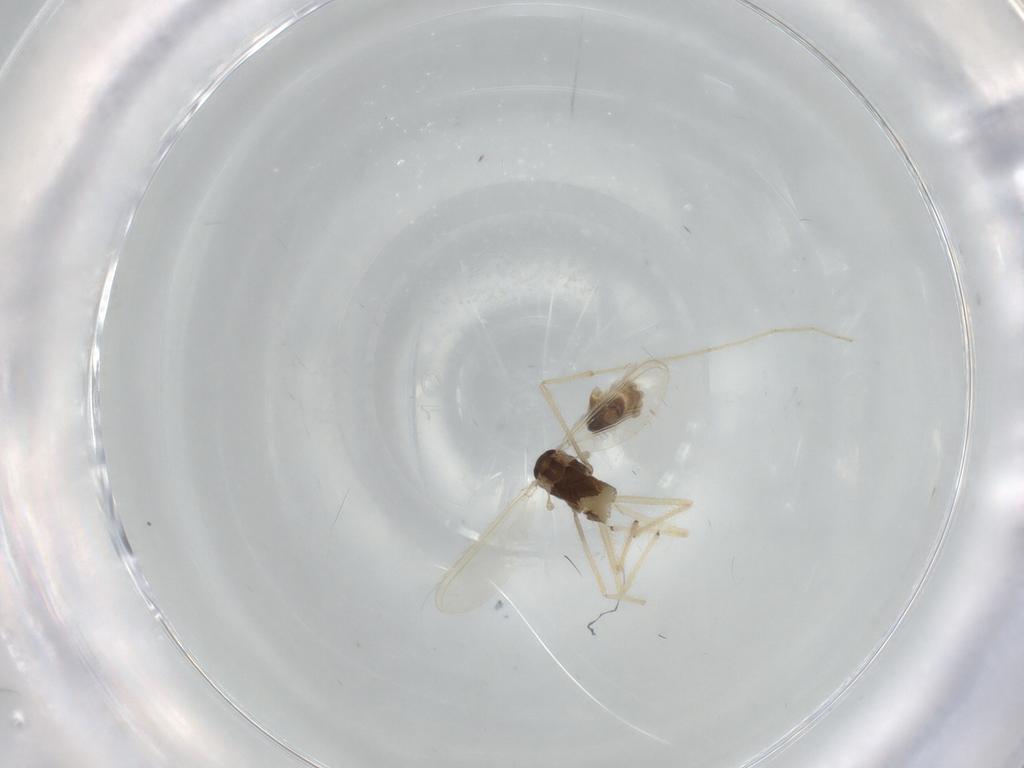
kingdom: Animalia
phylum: Arthropoda
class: Insecta
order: Diptera
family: Chironomidae
